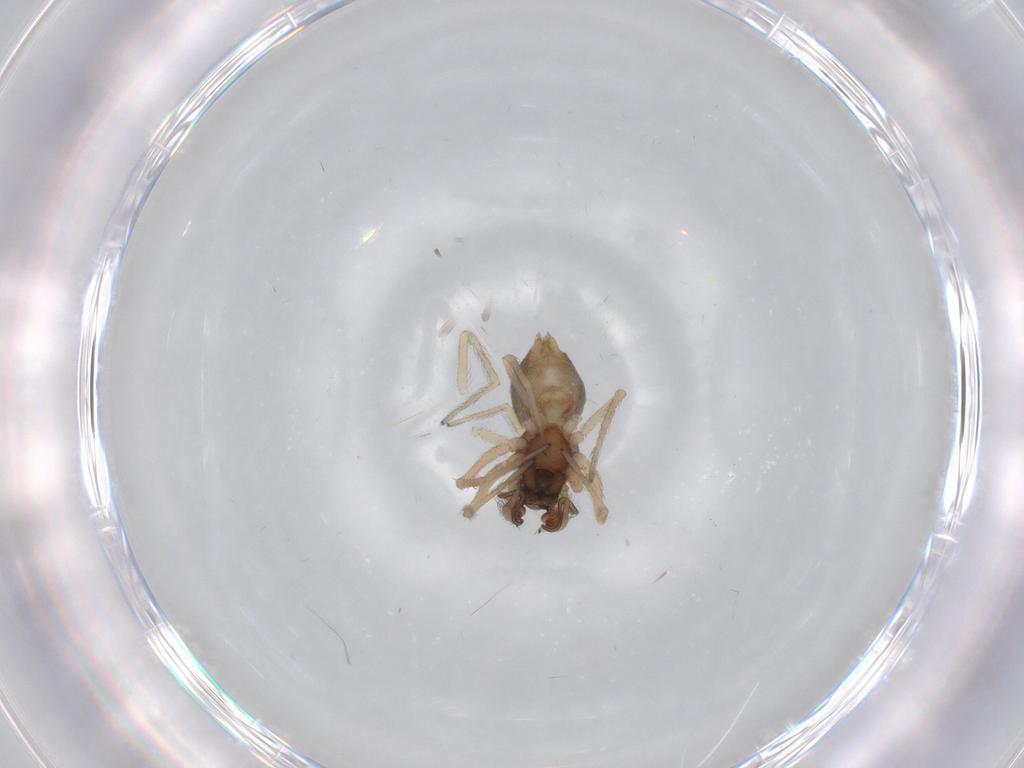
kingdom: Animalia
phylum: Arthropoda
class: Arachnida
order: Araneae
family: Dictynidae
